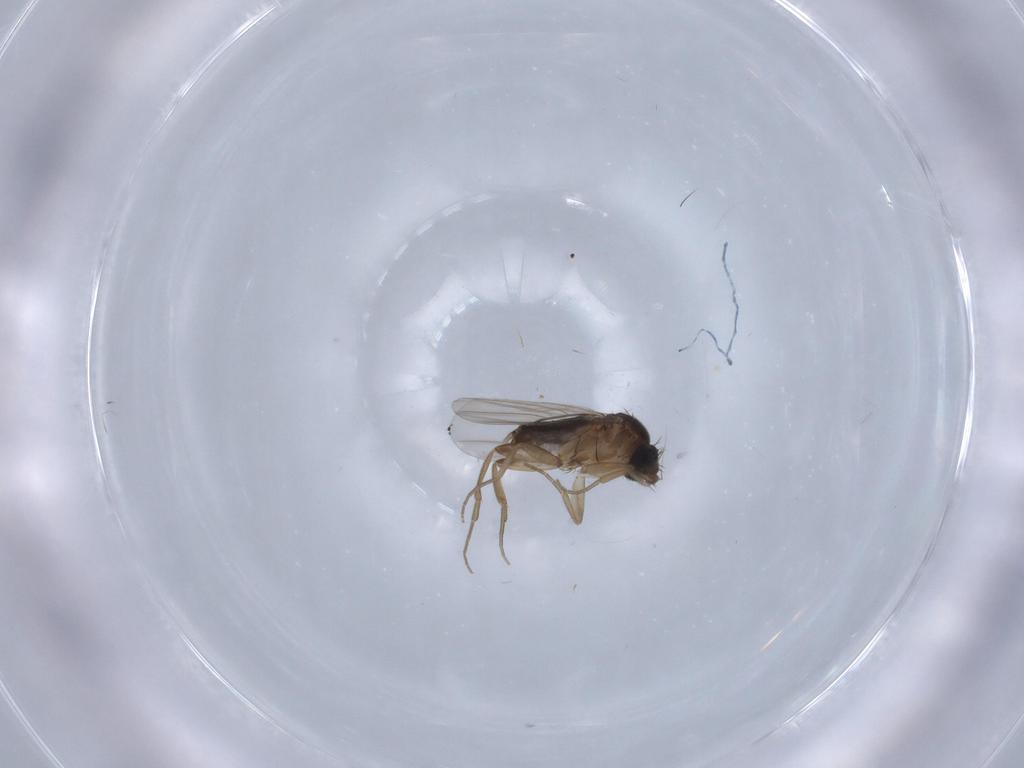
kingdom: Animalia
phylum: Arthropoda
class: Insecta
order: Diptera
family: Phoridae
